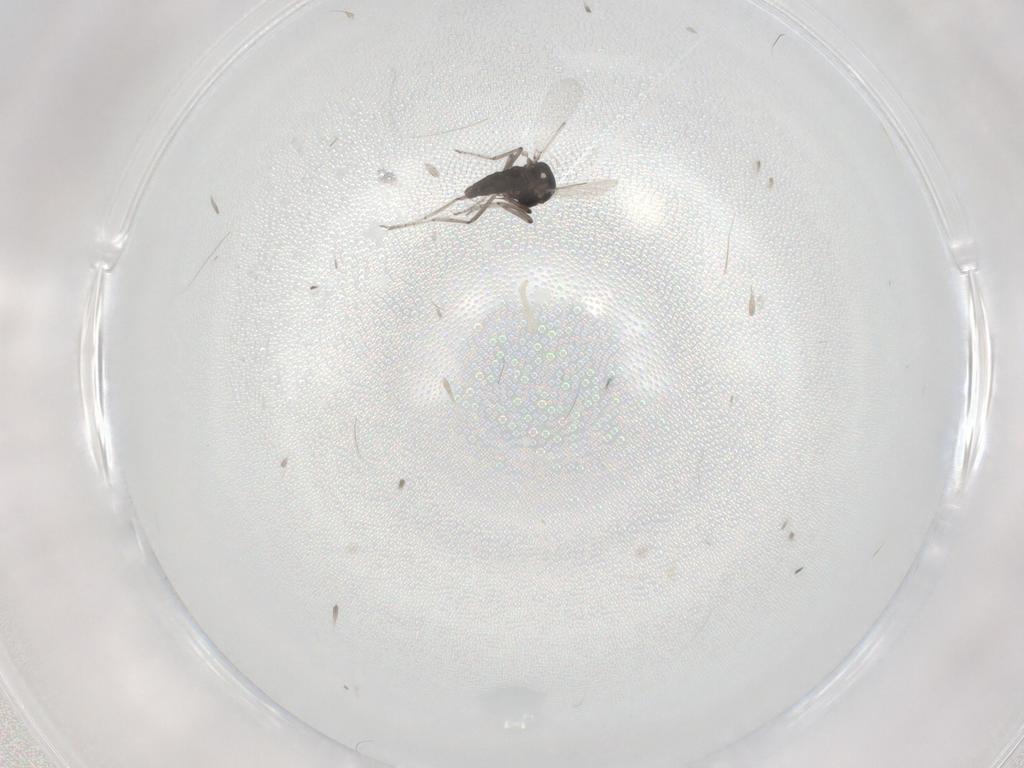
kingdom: Animalia
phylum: Arthropoda
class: Insecta
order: Diptera
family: Ceratopogonidae
